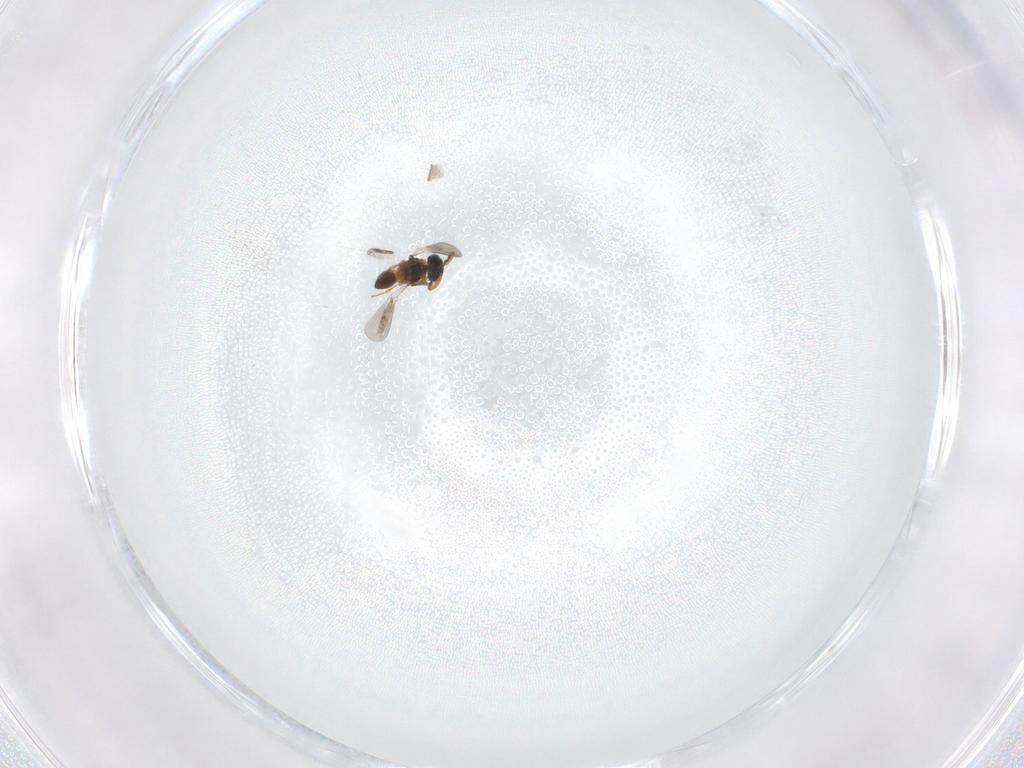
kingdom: Animalia
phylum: Arthropoda
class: Insecta
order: Hymenoptera
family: Platygastridae
